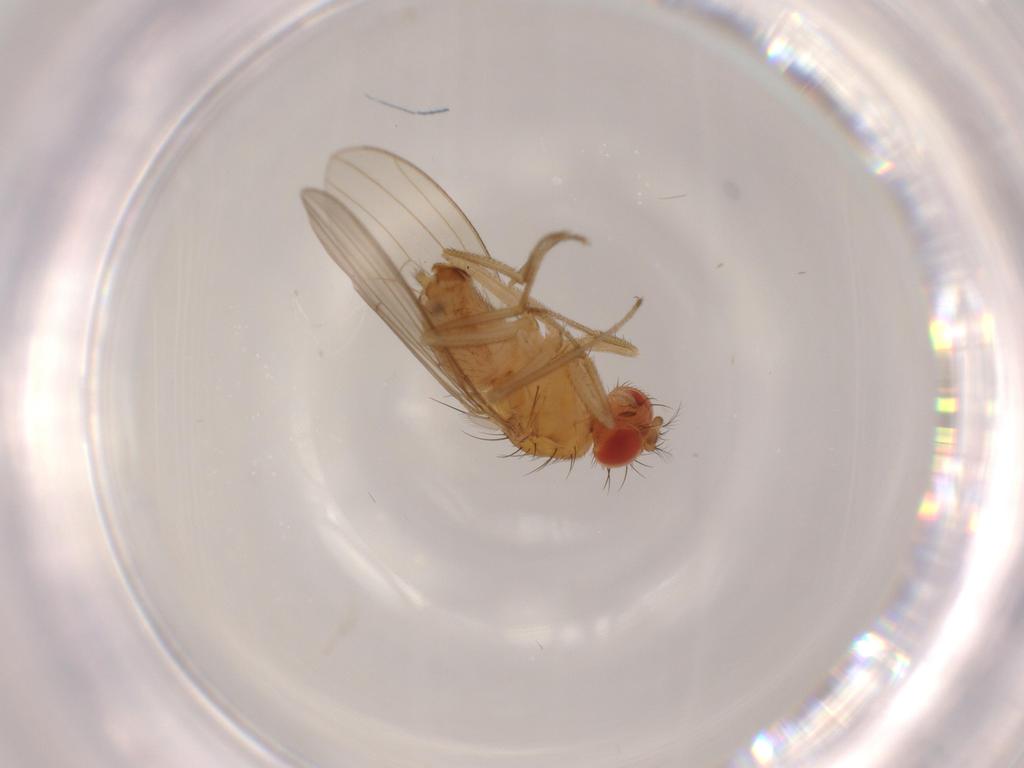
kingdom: Animalia
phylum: Arthropoda
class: Insecta
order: Diptera
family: Drosophilidae
